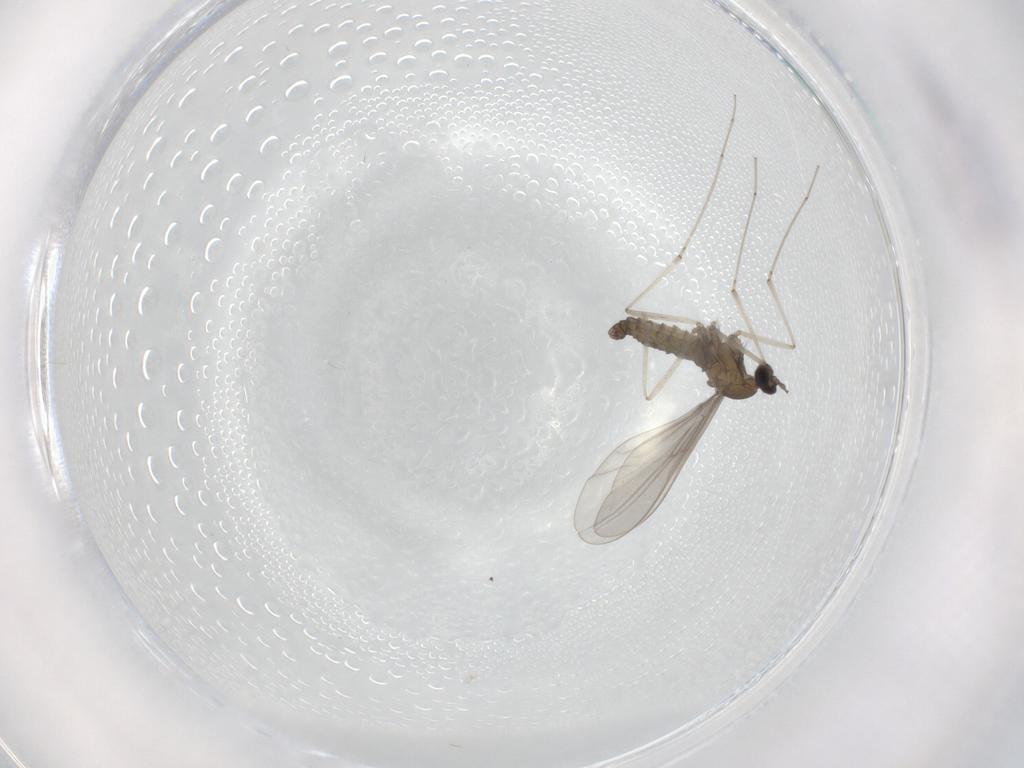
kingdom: Animalia
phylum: Arthropoda
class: Insecta
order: Diptera
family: Cecidomyiidae
